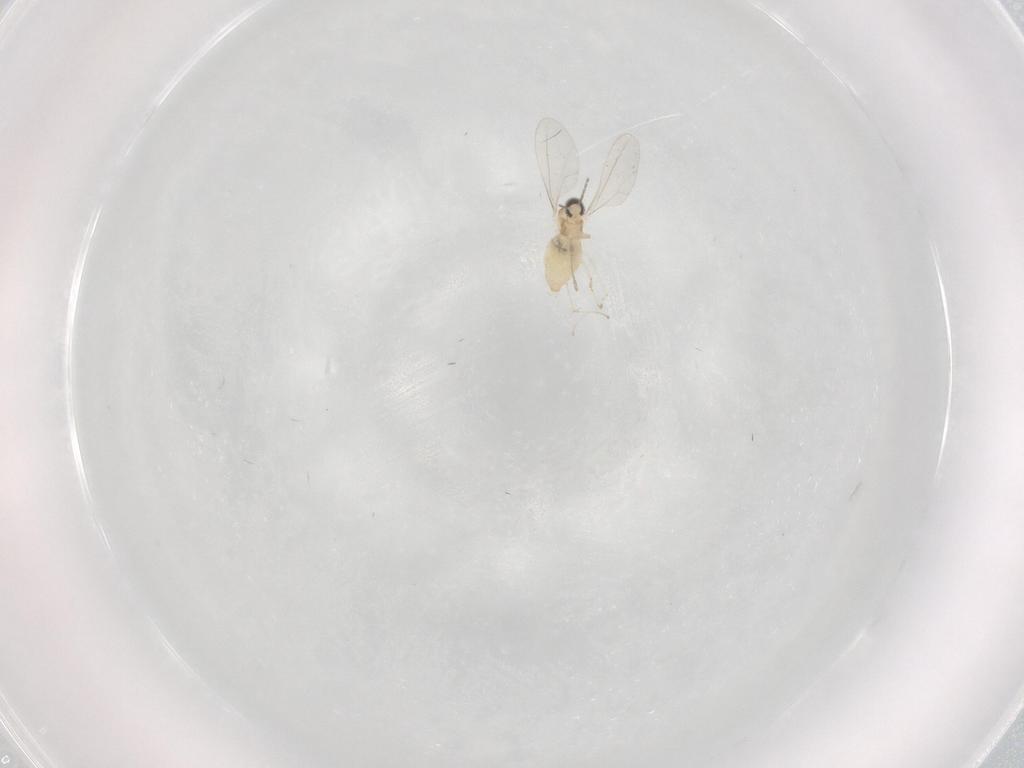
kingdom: Animalia
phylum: Arthropoda
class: Insecta
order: Diptera
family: Cecidomyiidae
